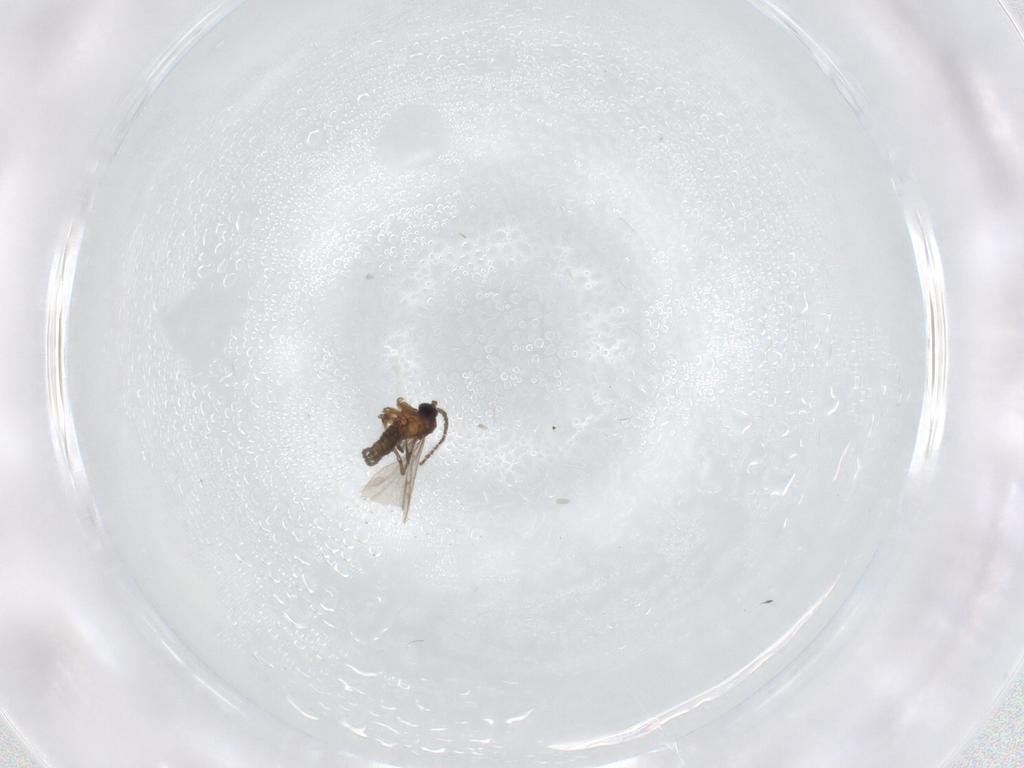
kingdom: Animalia
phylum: Arthropoda
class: Insecta
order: Diptera
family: Sciaridae
